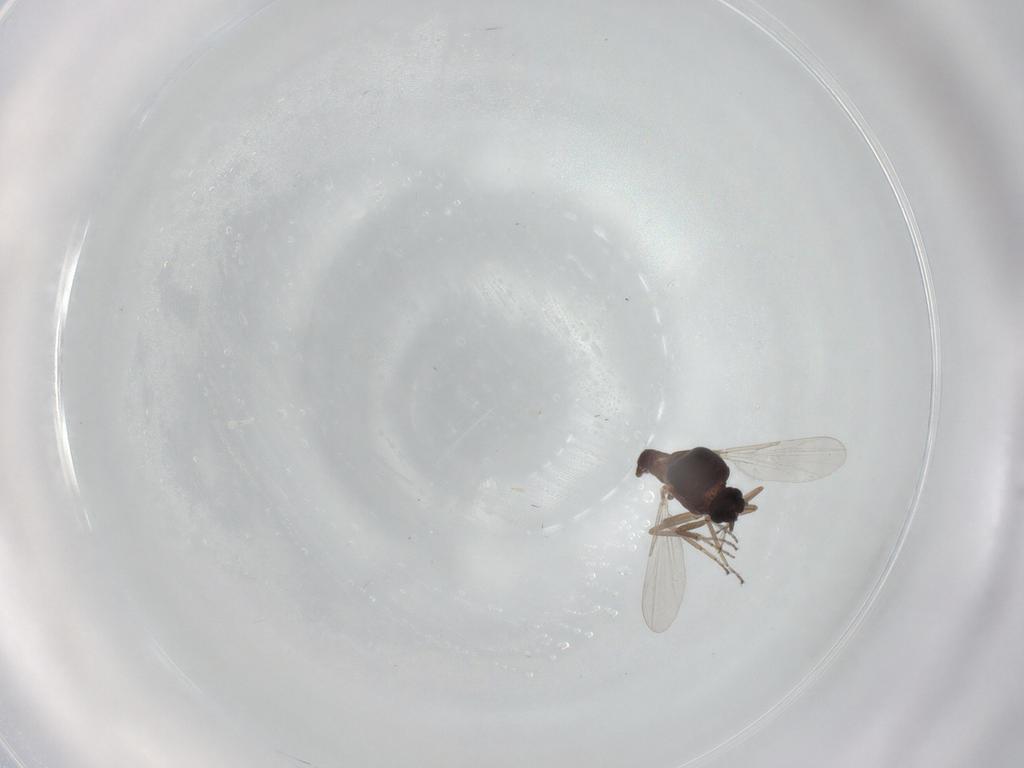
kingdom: Animalia
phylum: Arthropoda
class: Insecta
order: Diptera
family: Ceratopogonidae
